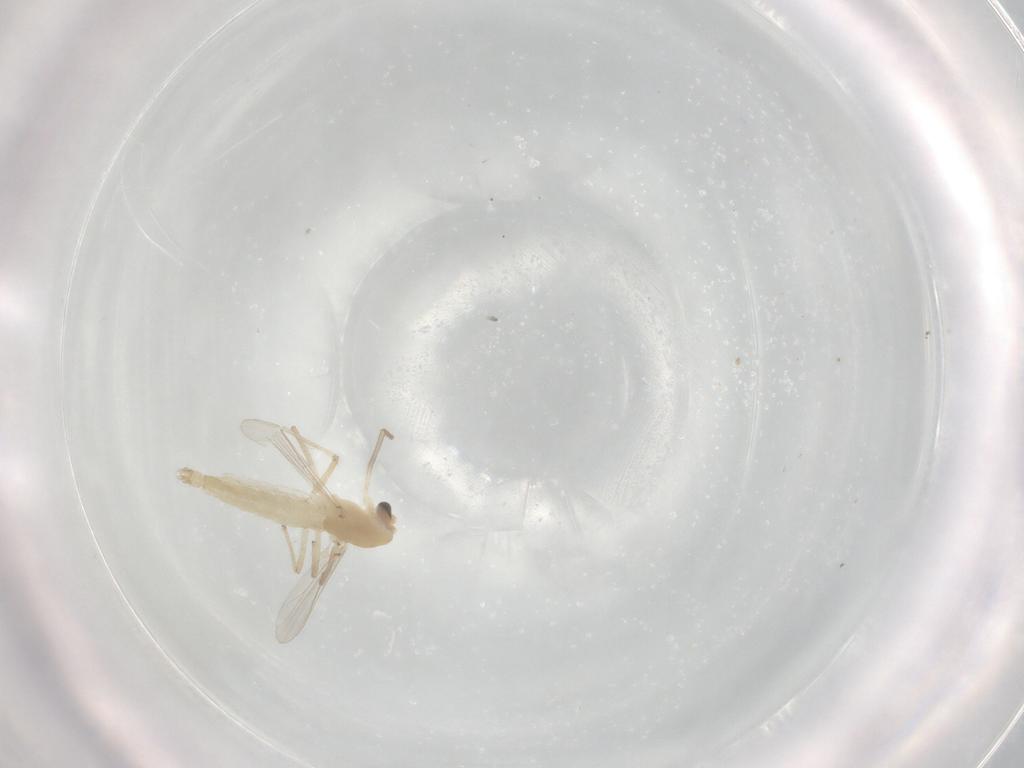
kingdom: Animalia
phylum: Arthropoda
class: Insecta
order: Diptera
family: Chironomidae
